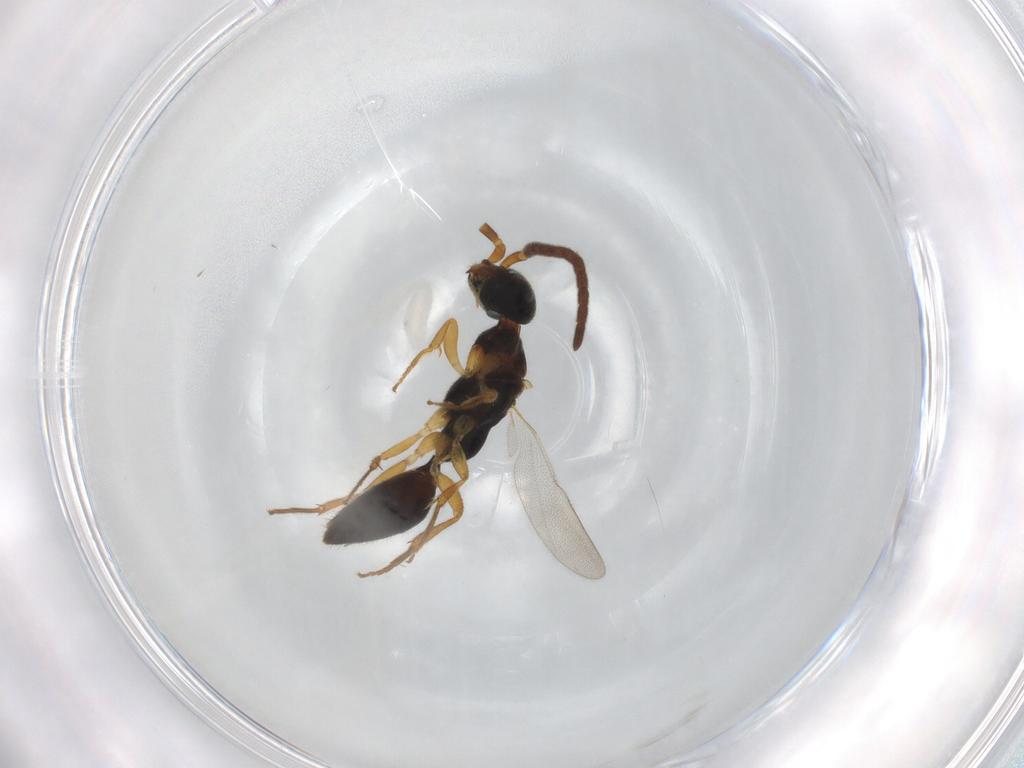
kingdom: Animalia
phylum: Arthropoda
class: Insecta
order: Hymenoptera
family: Bethylidae
